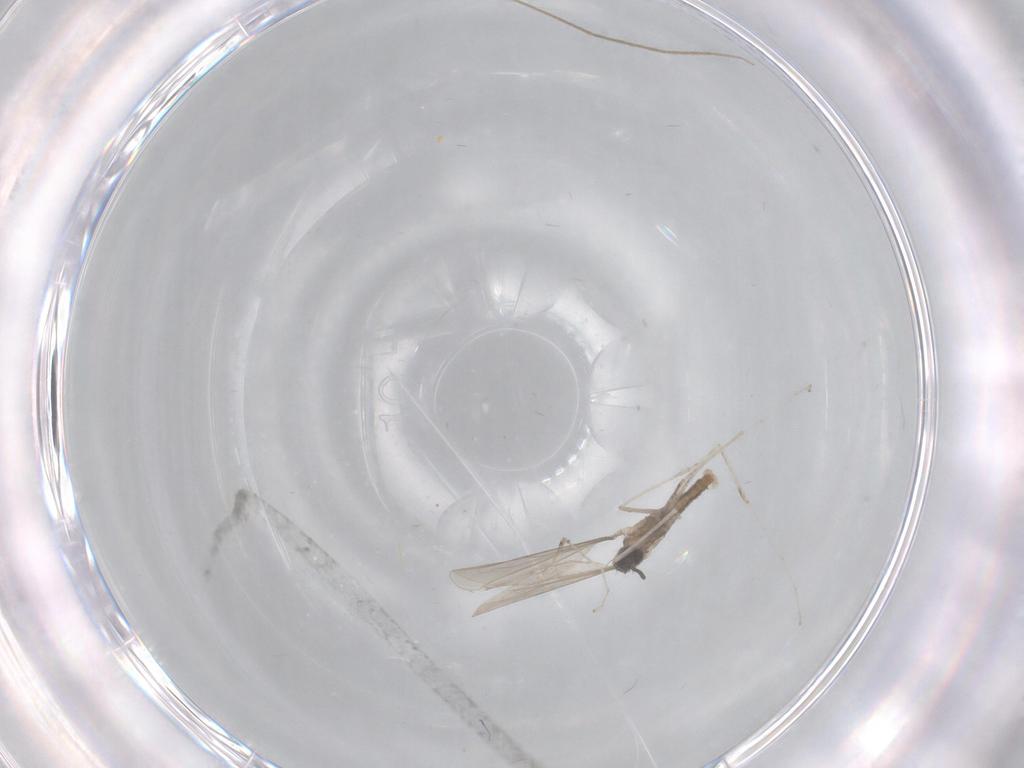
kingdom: Animalia
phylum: Arthropoda
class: Insecta
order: Diptera
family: Cecidomyiidae
